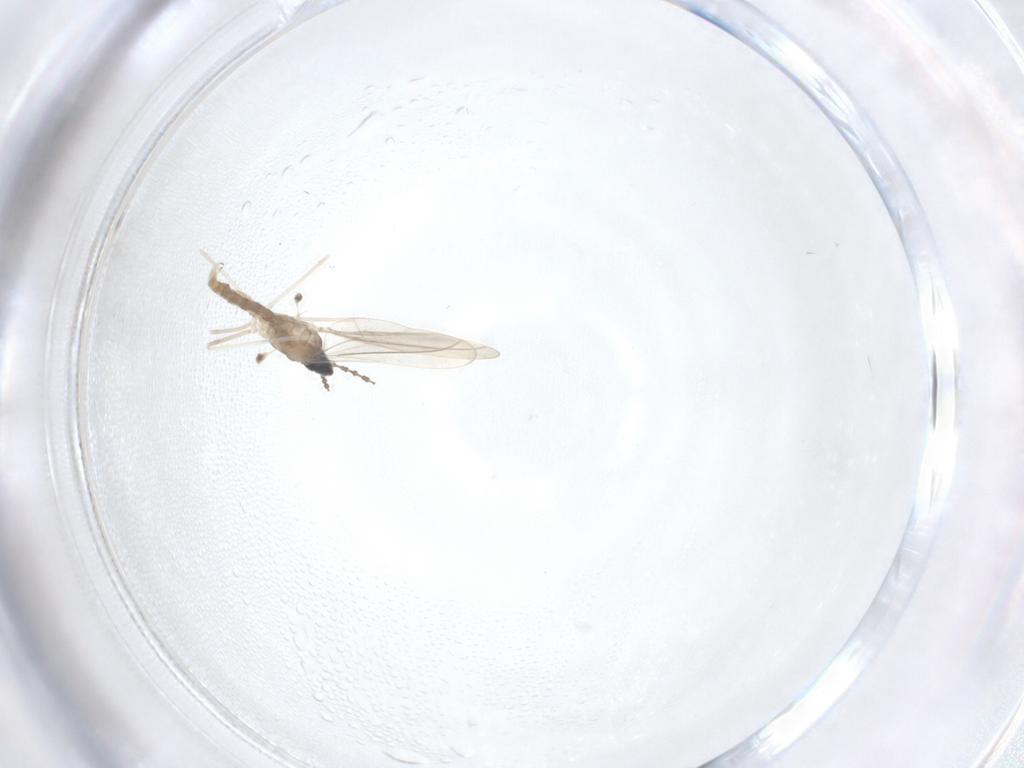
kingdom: Animalia
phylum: Arthropoda
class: Insecta
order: Diptera
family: Cecidomyiidae
